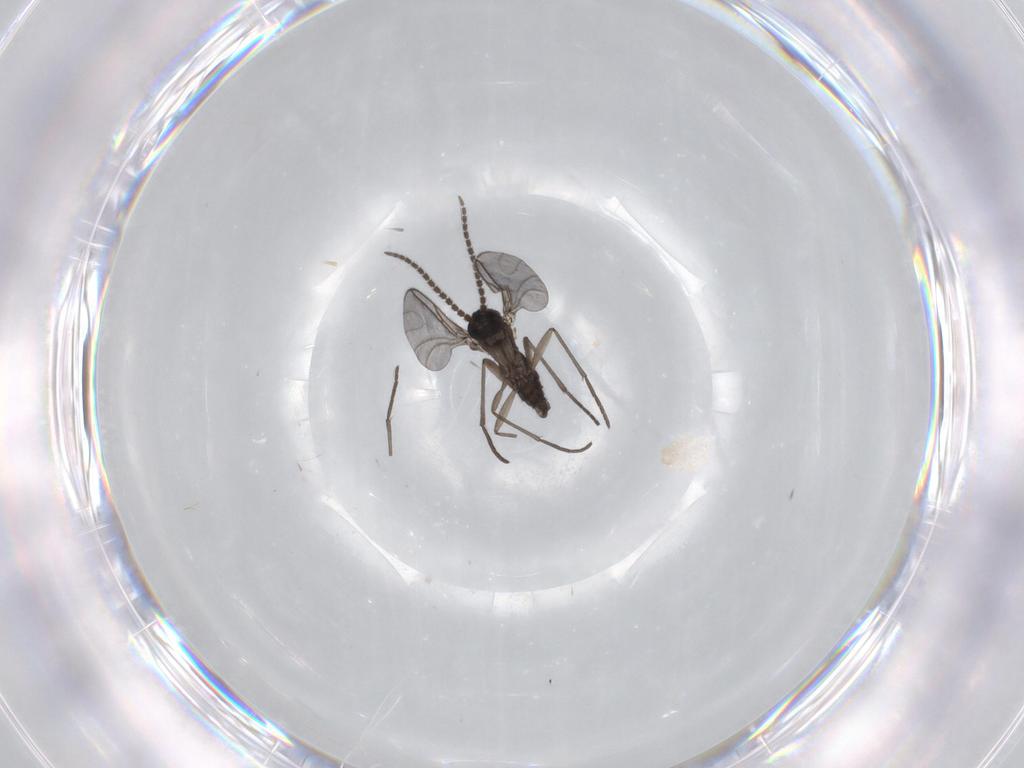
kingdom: Animalia
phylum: Arthropoda
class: Insecta
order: Diptera
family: Sciaridae
